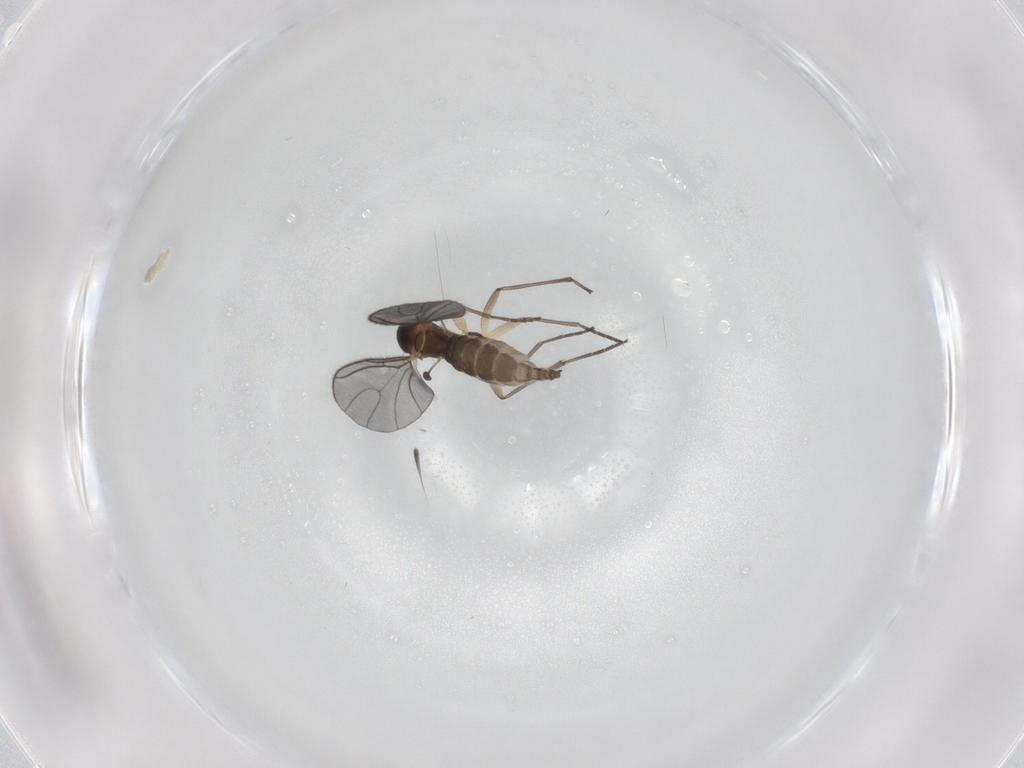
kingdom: Animalia
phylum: Arthropoda
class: Insecta
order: Diptera
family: Sciaridae
